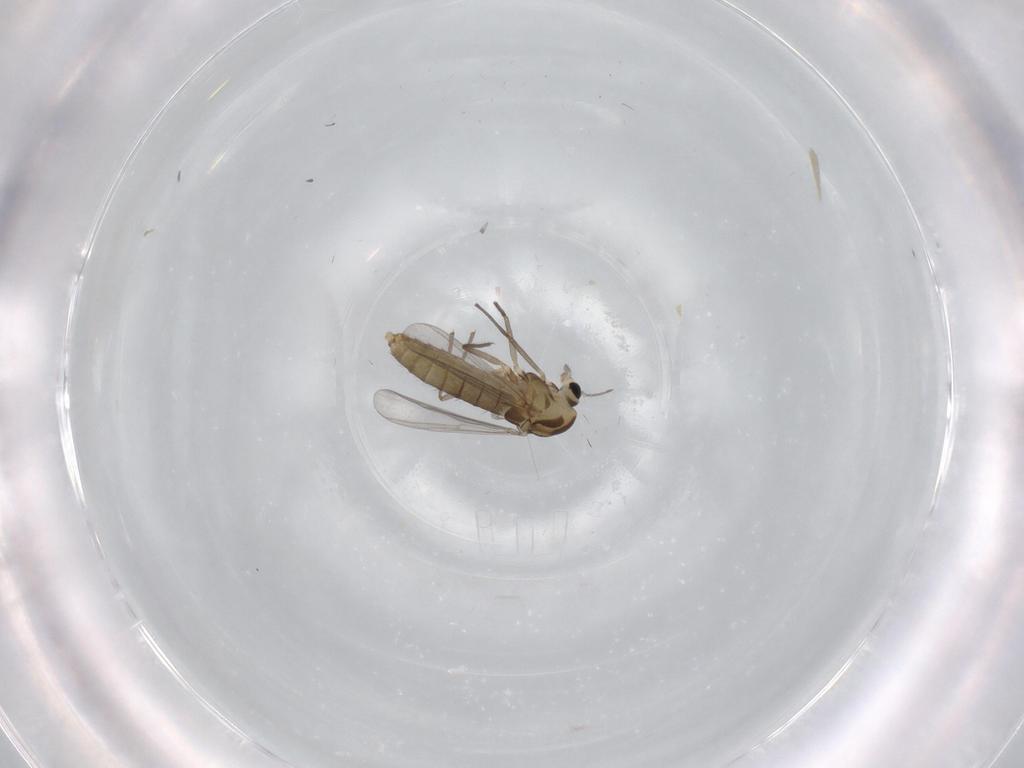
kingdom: Animalia
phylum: Arthropoda
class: Insecta
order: Diptera
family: Chironomidae
